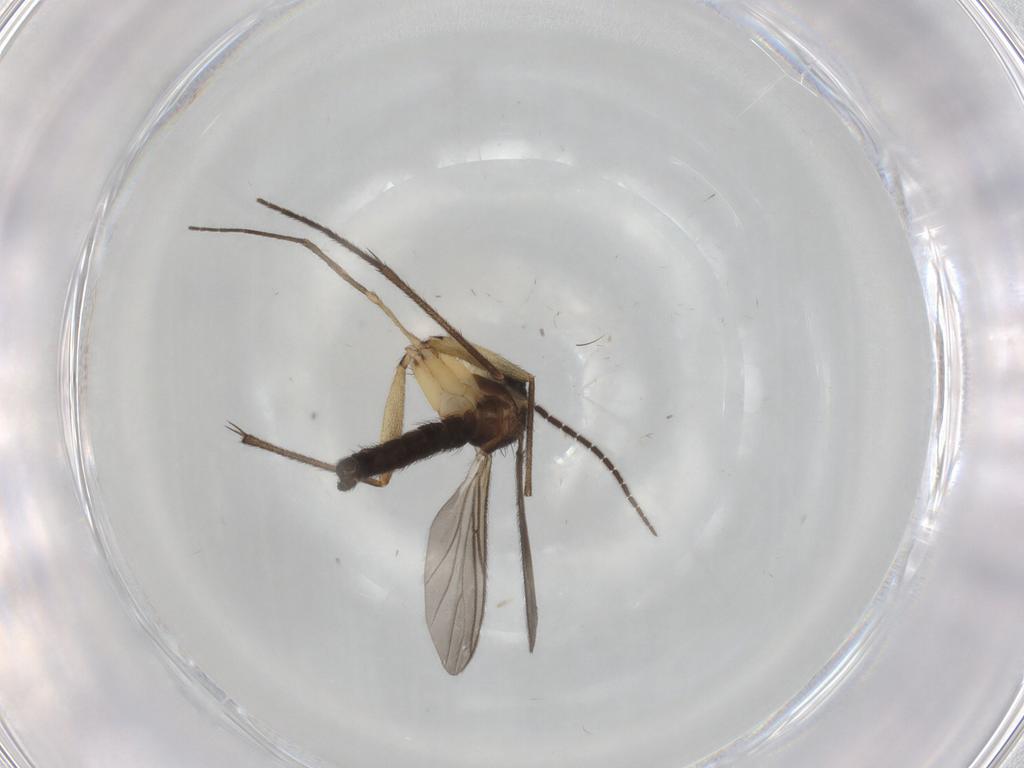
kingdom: Animalia
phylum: Arthropoda
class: Insecta
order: Diptera
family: Sciaridae
